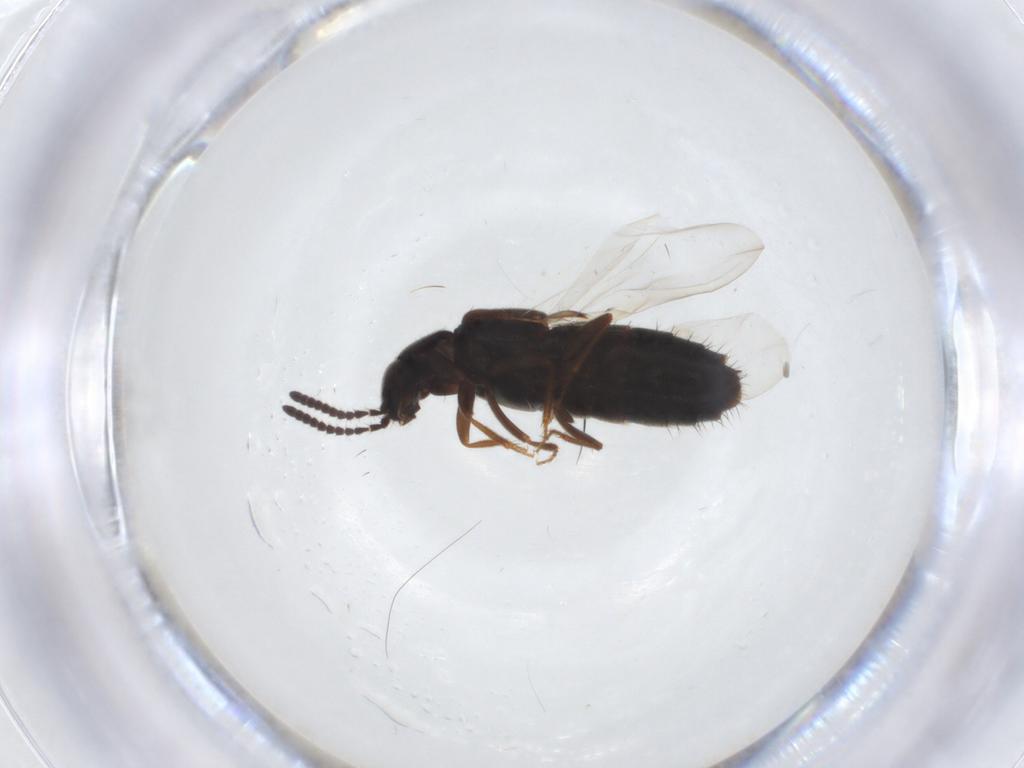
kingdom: Animalia
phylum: Arthropoda
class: Insecta
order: Coleoptera
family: Staphylinidae
